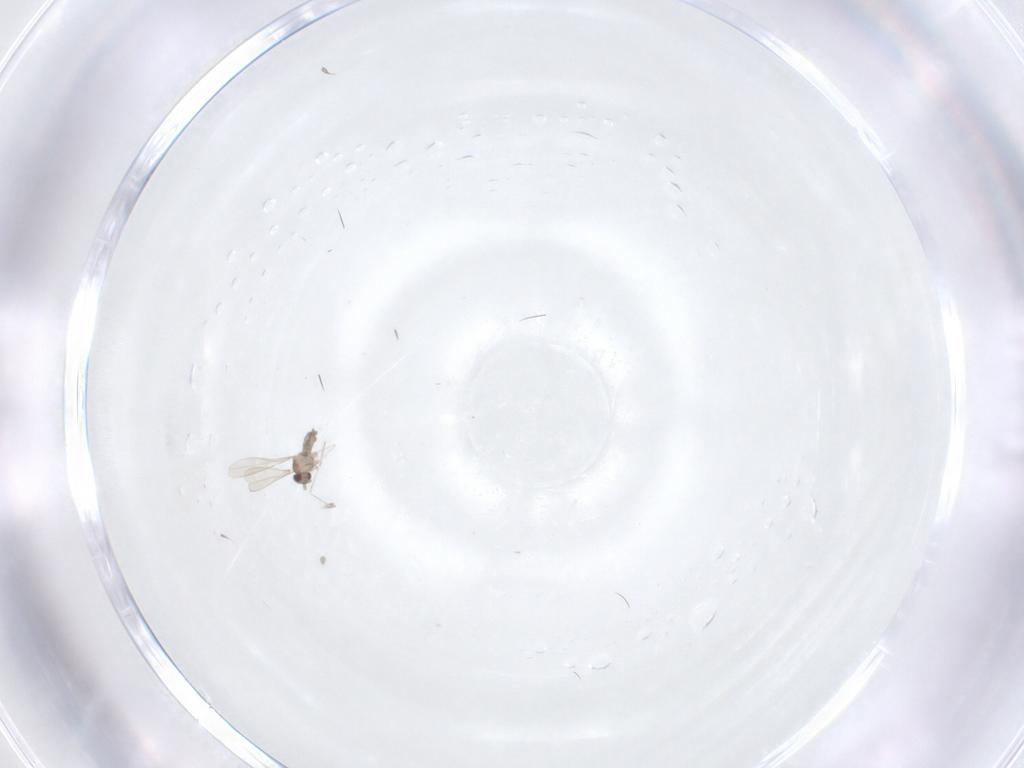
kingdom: Animalia
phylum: Arthropoda
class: Insecta
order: Diptera
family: Cecidomyiidae
